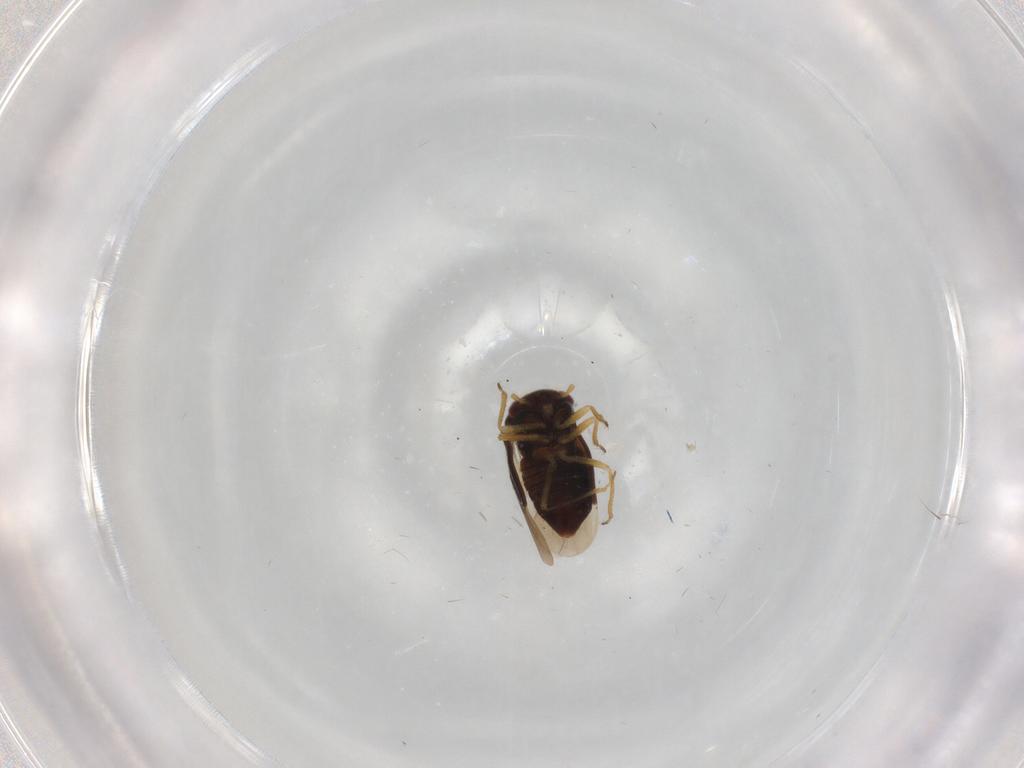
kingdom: Animalia
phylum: Arthropoda
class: Insecta
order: Hemiptera
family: Schizopteridae
